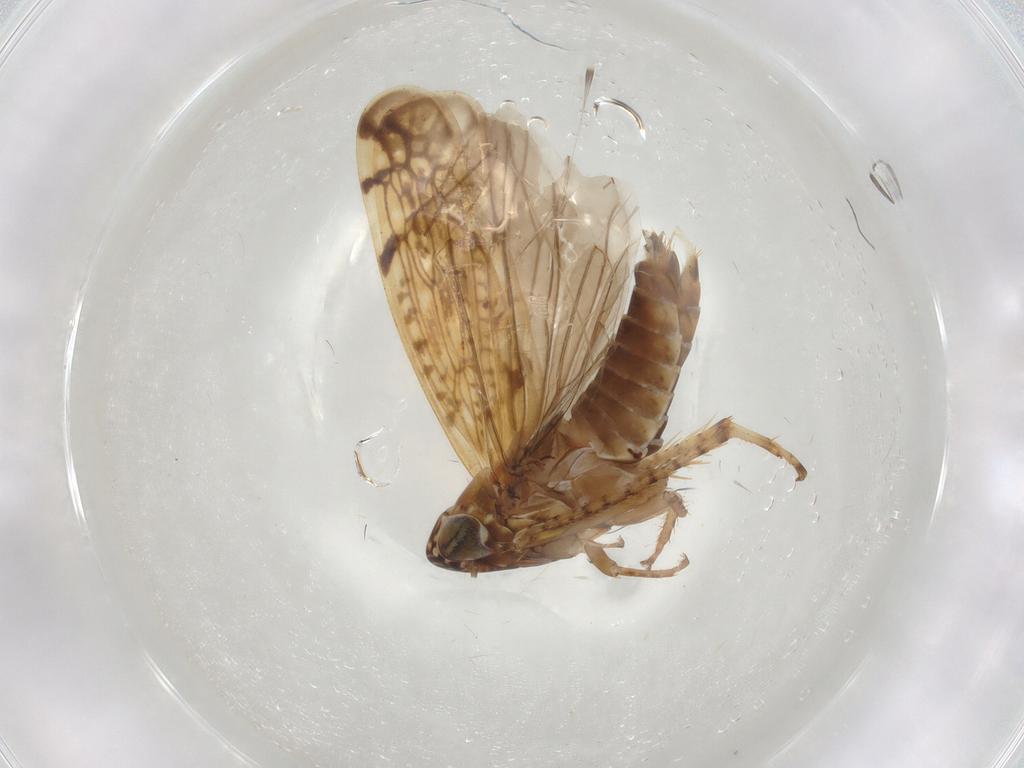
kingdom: Animalia
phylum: Arthropoda
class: Insecta
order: Hemiptera
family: Cicadellidae
